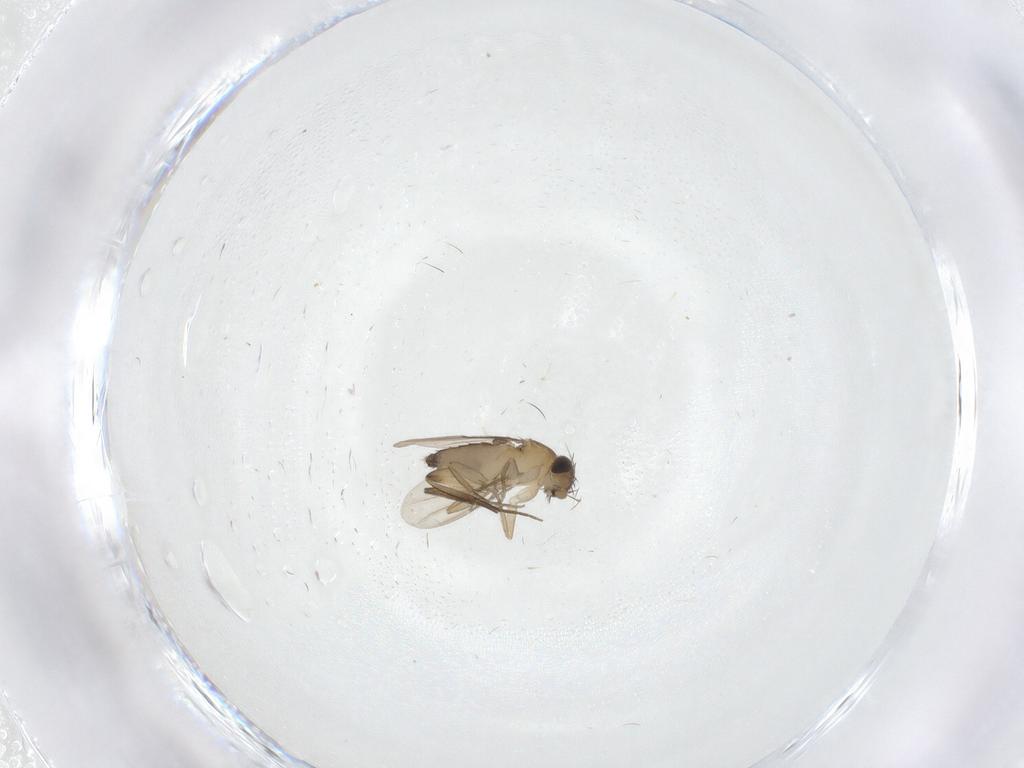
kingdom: Animalia
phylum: Arthropoda
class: Insecta
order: Diptera
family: Phoridae
